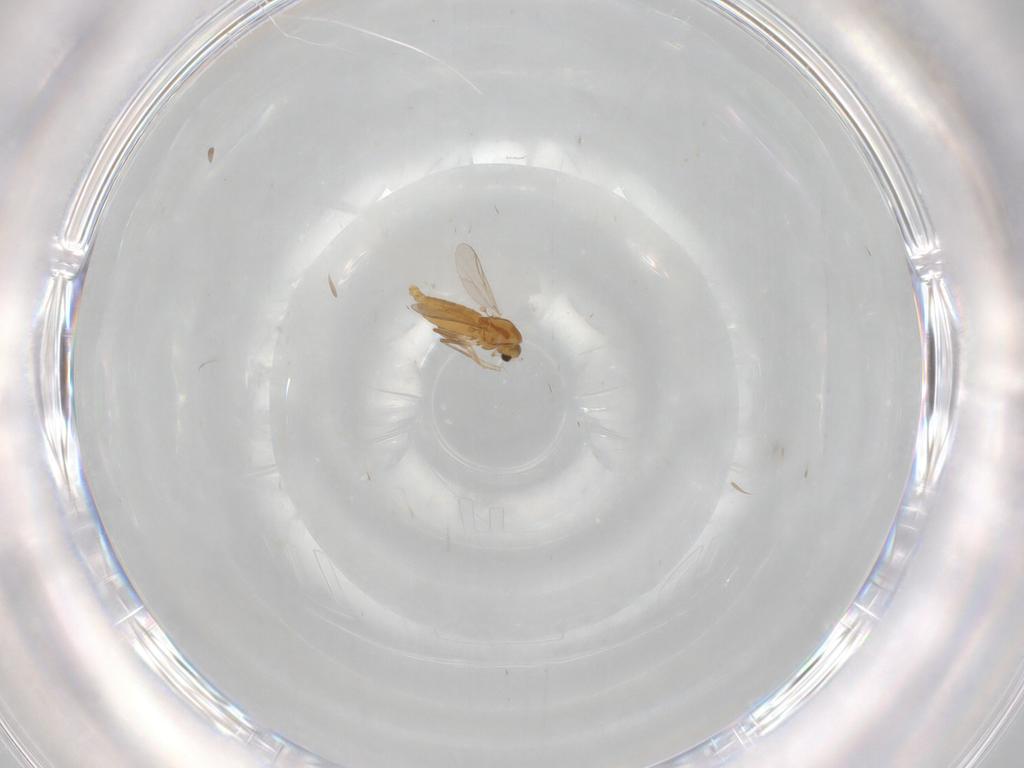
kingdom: Animalia
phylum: Arthropoda
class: Insecta
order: Diptera
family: Chironomidae
